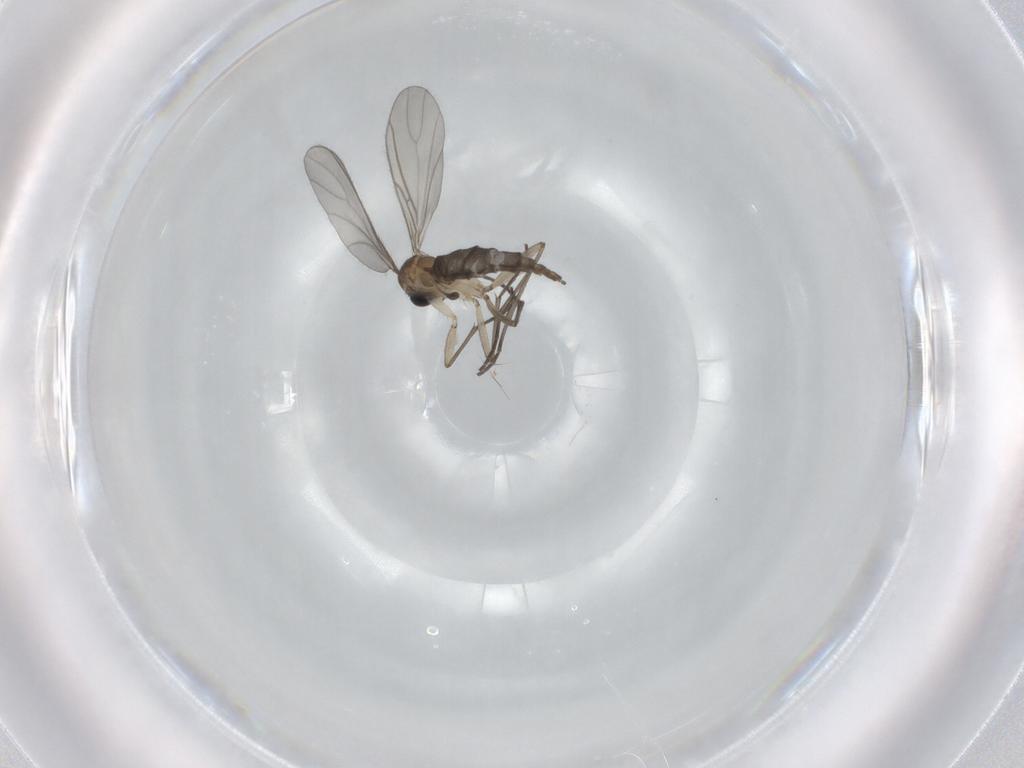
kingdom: Animalia
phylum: Arthropoda
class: Insecta
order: Diptera
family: Sciaridae
